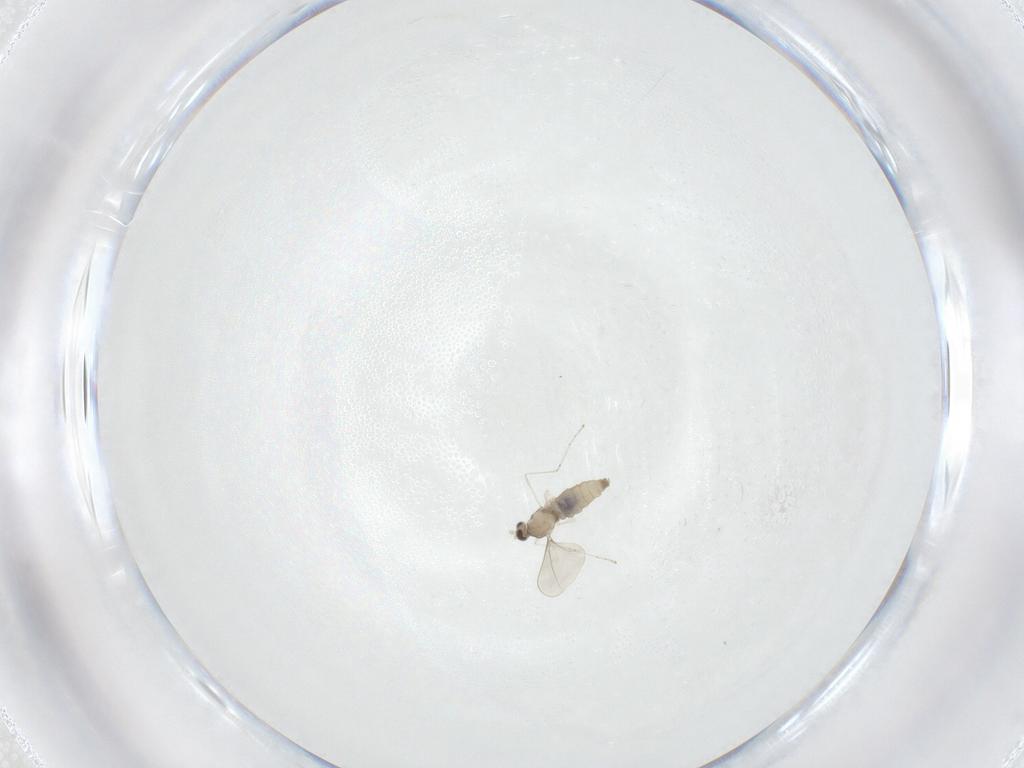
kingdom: Animalia
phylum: Arthropoda
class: Insecta
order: Diptera
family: Cecidomyiidae
